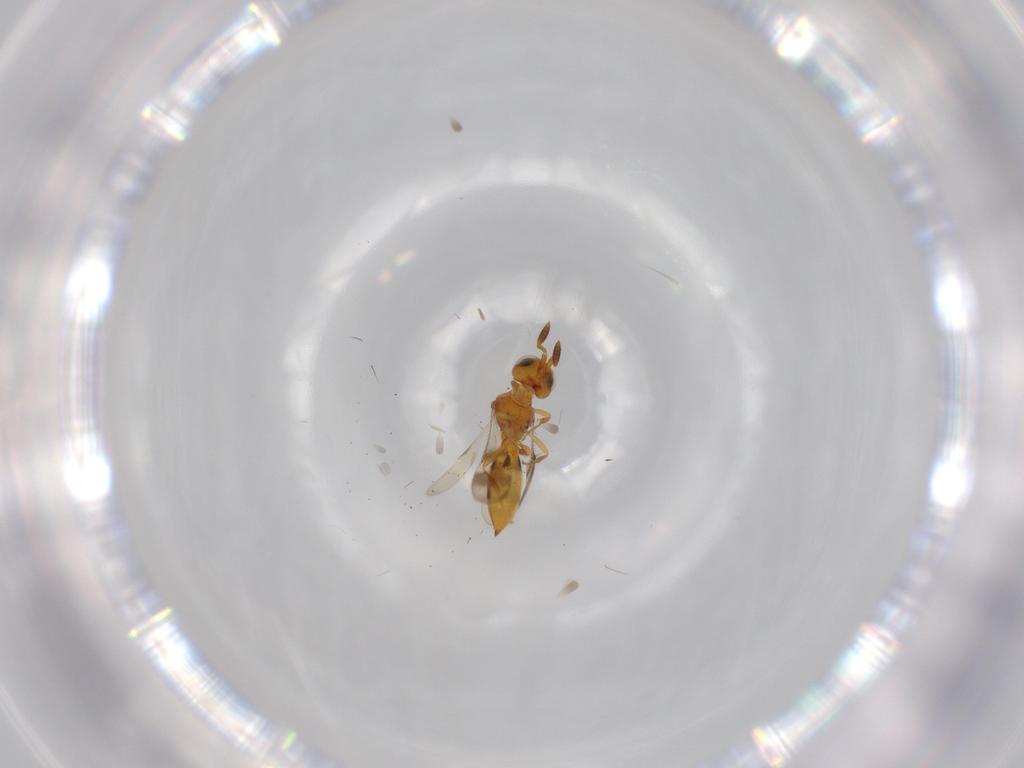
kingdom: Animalia
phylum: Arthropoda
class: Insecta
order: Hymenoptera
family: Scelionidae
